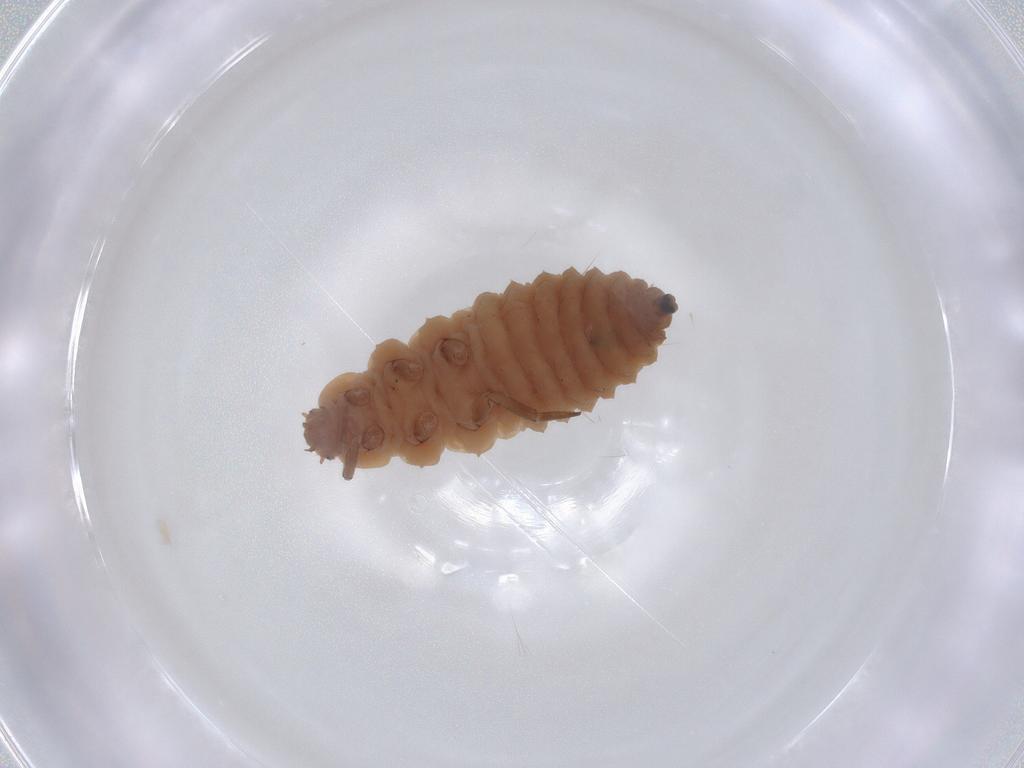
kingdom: Animalia
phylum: Arthropoda
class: Insecta
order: Coleoptera
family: Coccinellidae
